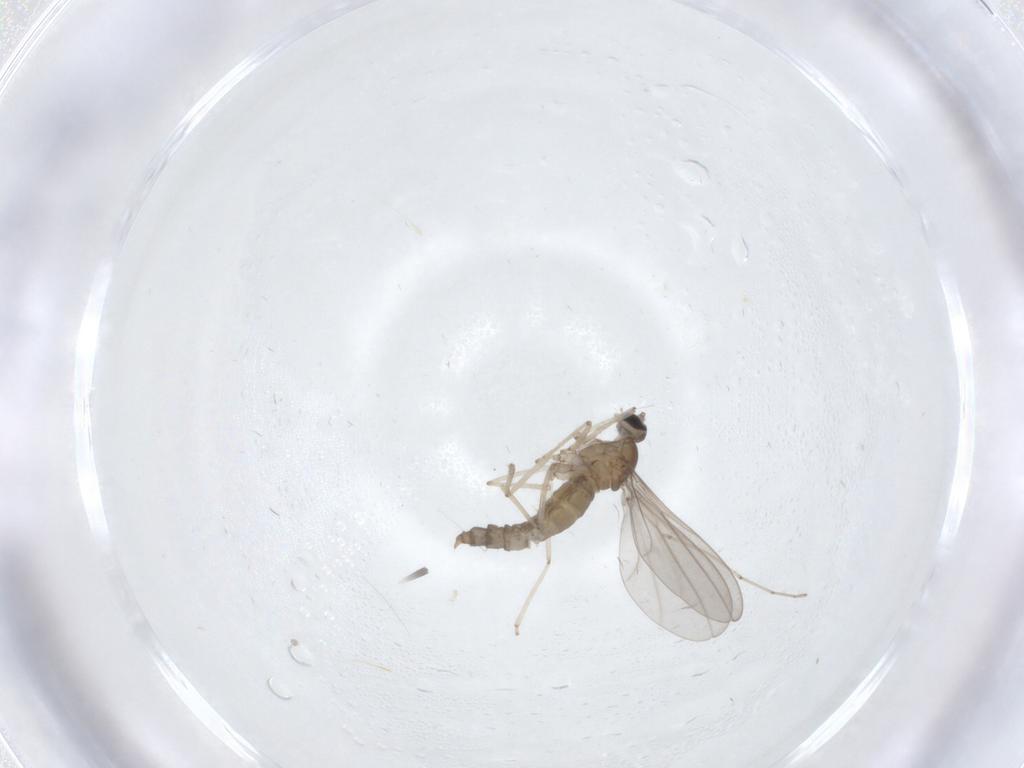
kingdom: Animalia
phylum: Arthropoda
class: Insecta
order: Diptera
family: Cecidomyiidae
